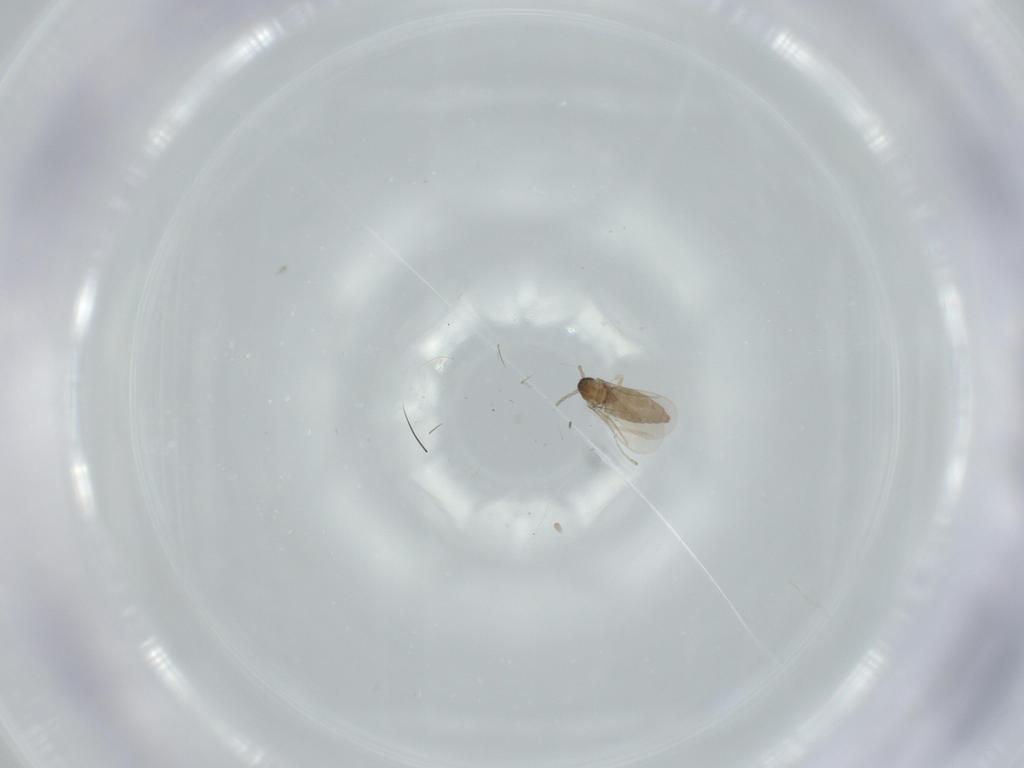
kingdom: Animalia
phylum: Arthropoda
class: Insecta
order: Diptera
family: Cecidomyiidae
